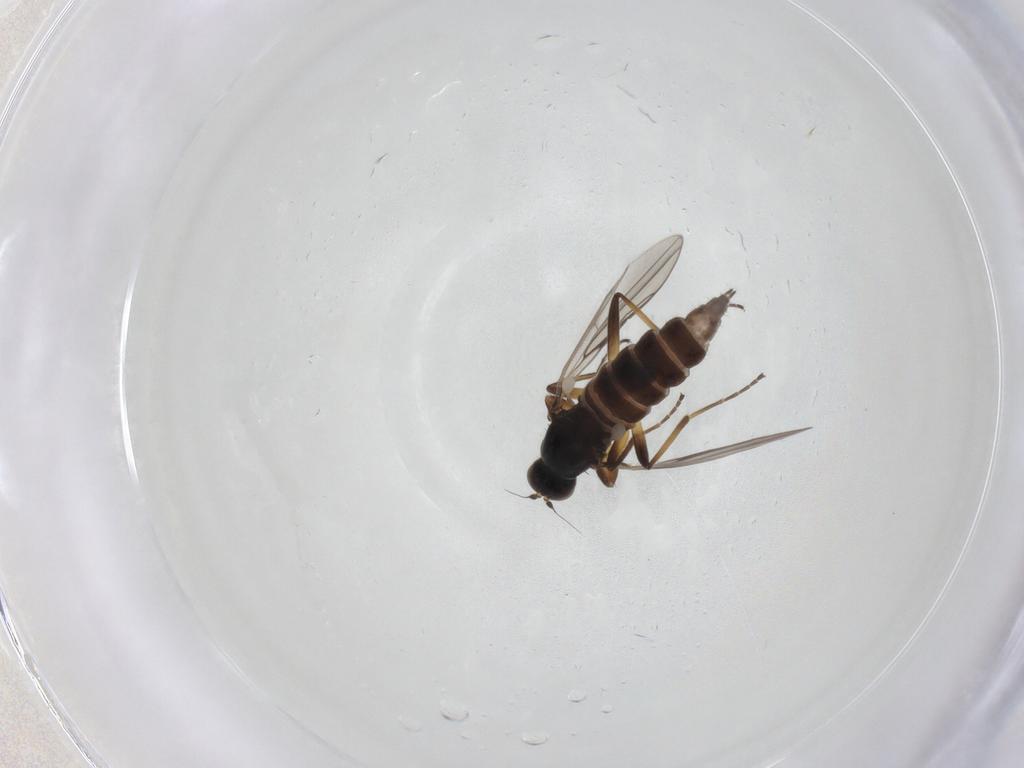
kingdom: Animalia
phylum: Arthropoda
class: Insecta
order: Diptera
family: Hybotidae
